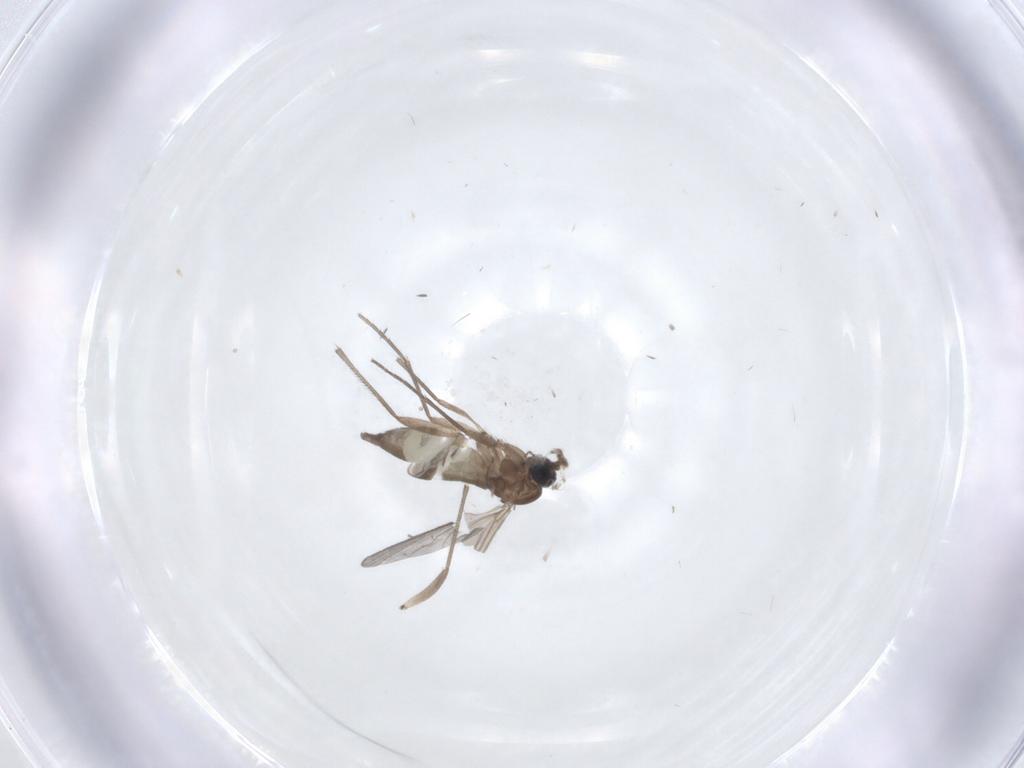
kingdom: Animalia
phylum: Arthropoda
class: Insecta
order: Diptera
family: Sciaridae
